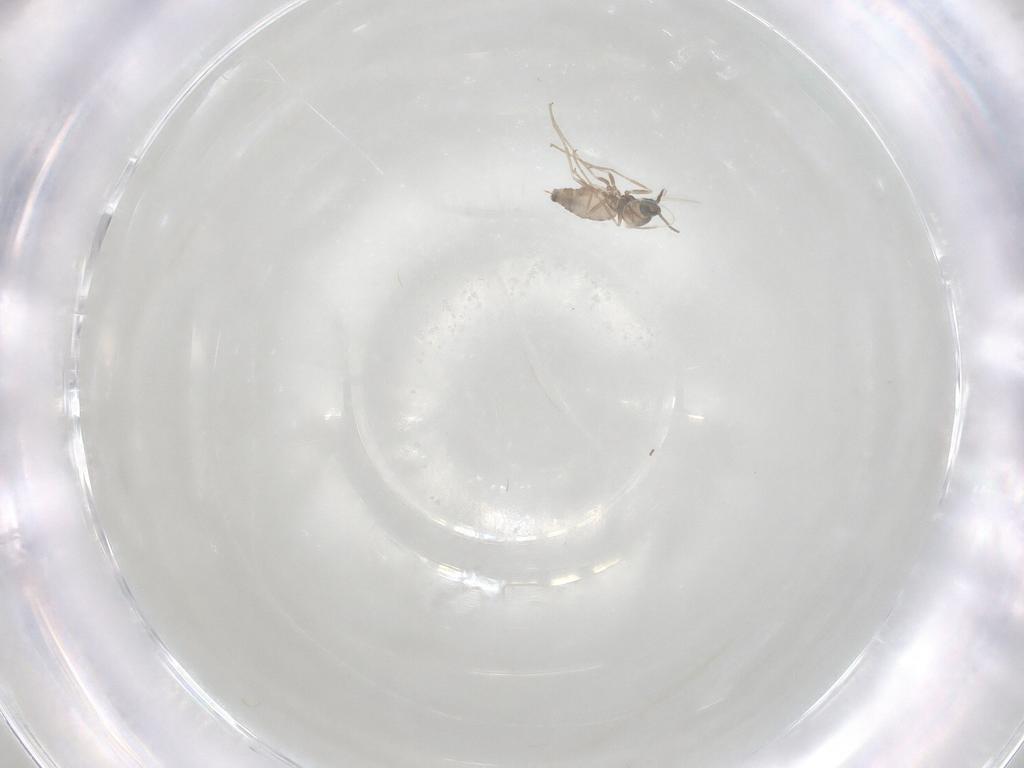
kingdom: Animalia
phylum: Arthropoda
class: Insecta
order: Diptera
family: Cecidomyiidae
